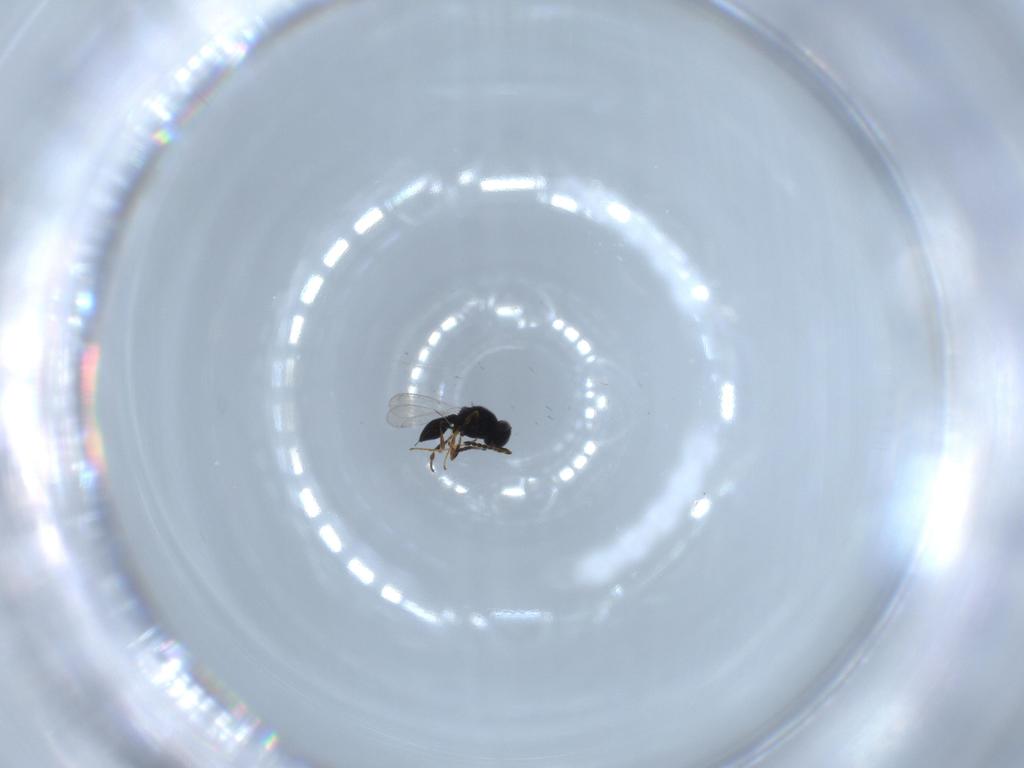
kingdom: Animalia
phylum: Arthropoda
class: Insecta
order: Hymenoptera
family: Platygastridae
